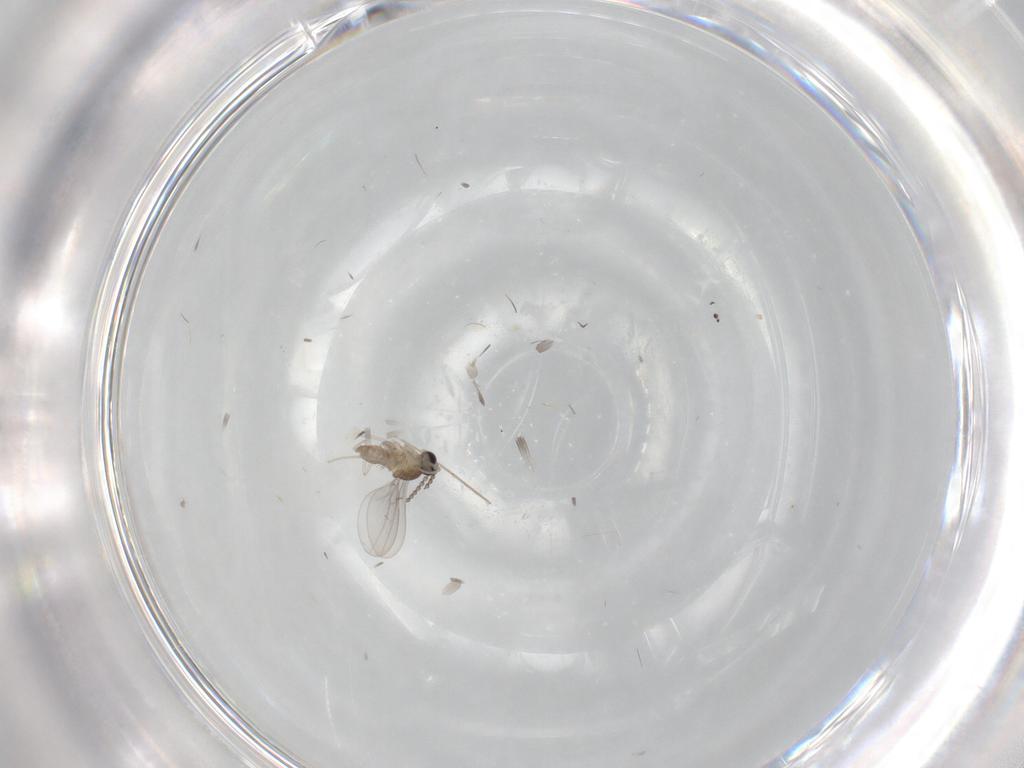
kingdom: Animalia
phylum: Arthropoda
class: Insecta
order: Diptera
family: Cecidomyiidae
